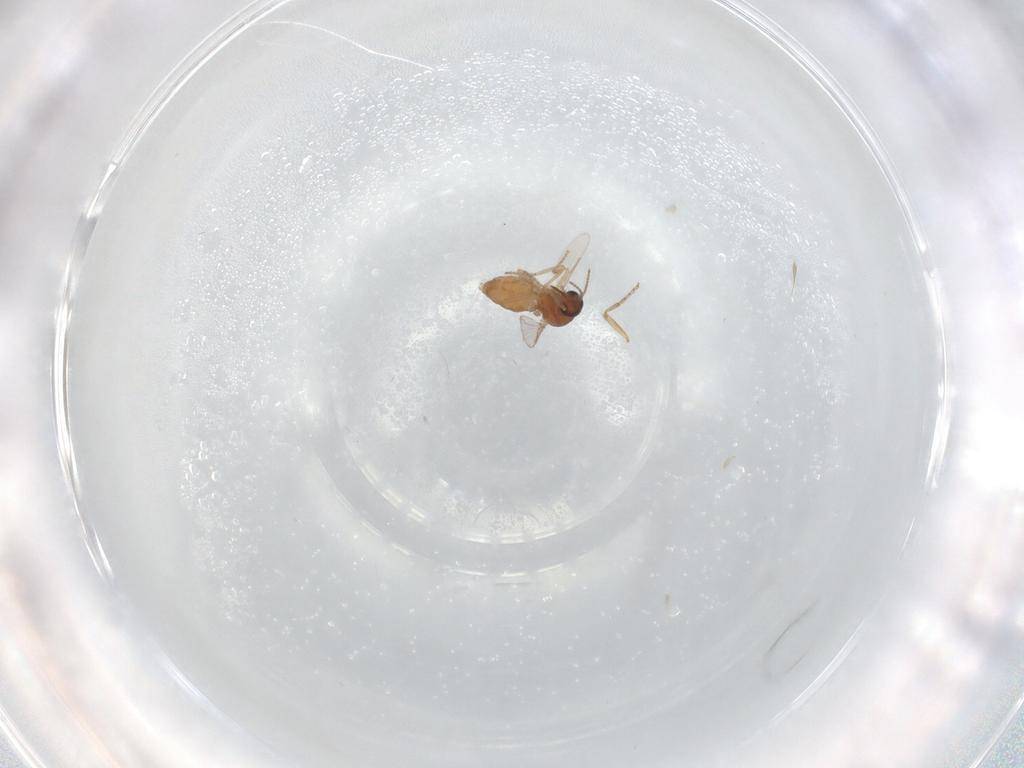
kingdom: Animalia
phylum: Arthropoda
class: Insecta
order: Diptera
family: Ceratopogonidae
